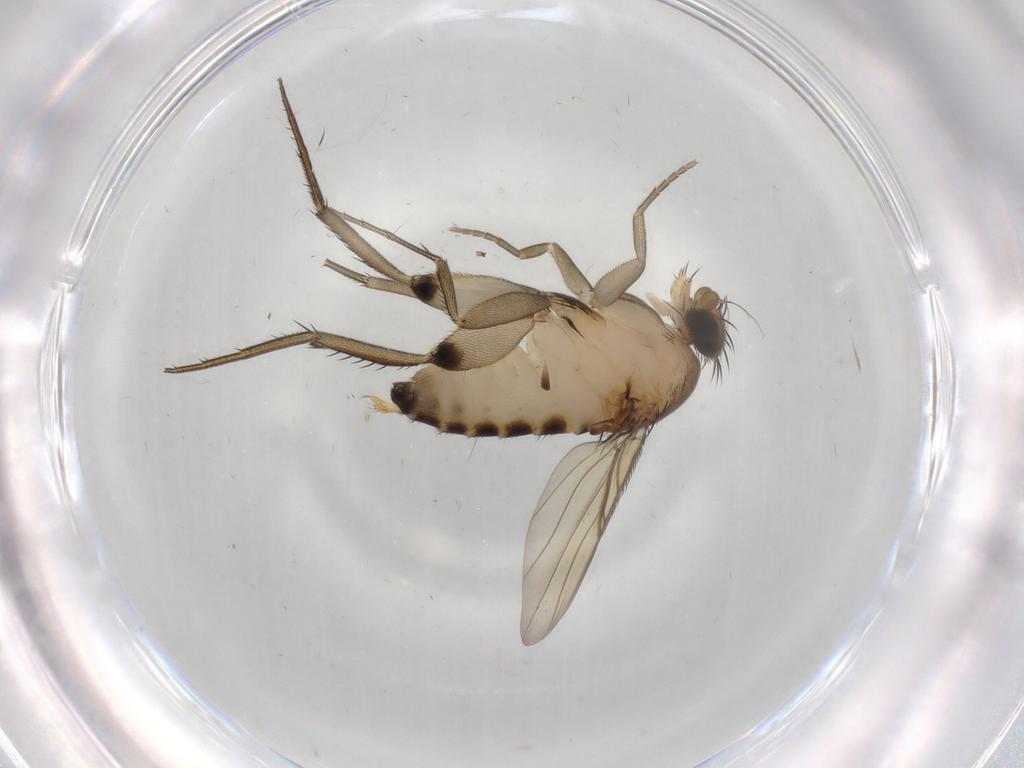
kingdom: Animalia
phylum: Arthropoda
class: Insecta
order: Diptera
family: Phoridae
